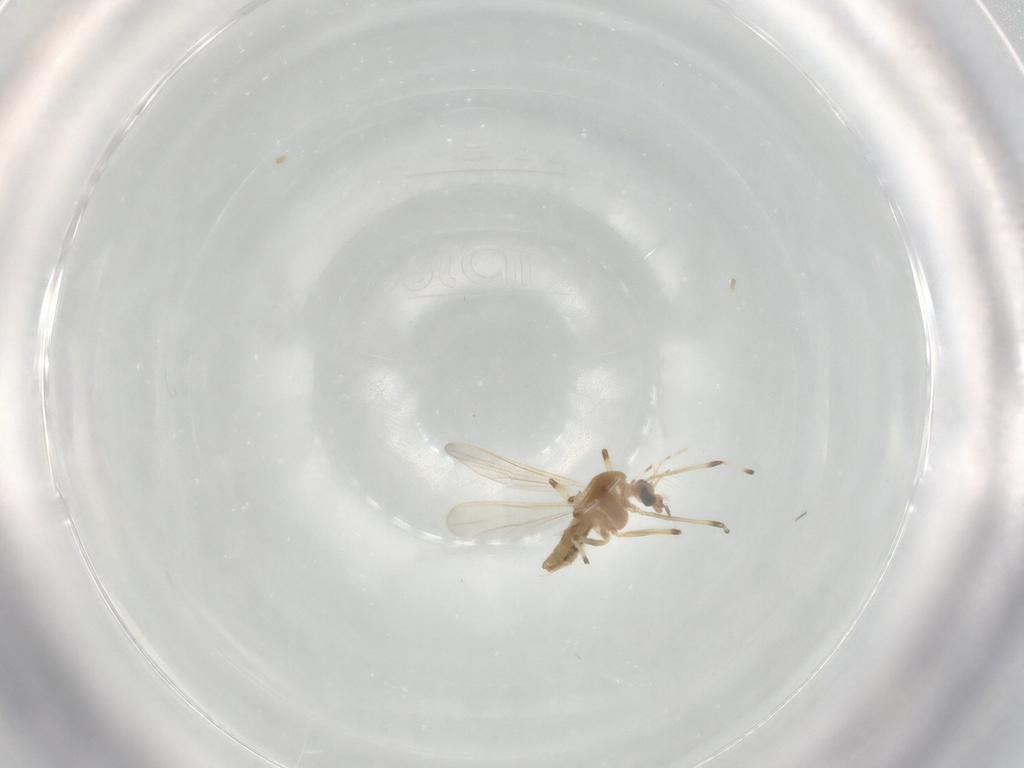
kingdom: Animalia
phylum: Arthropoda
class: Insecta
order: Diptera
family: Chironomidae
